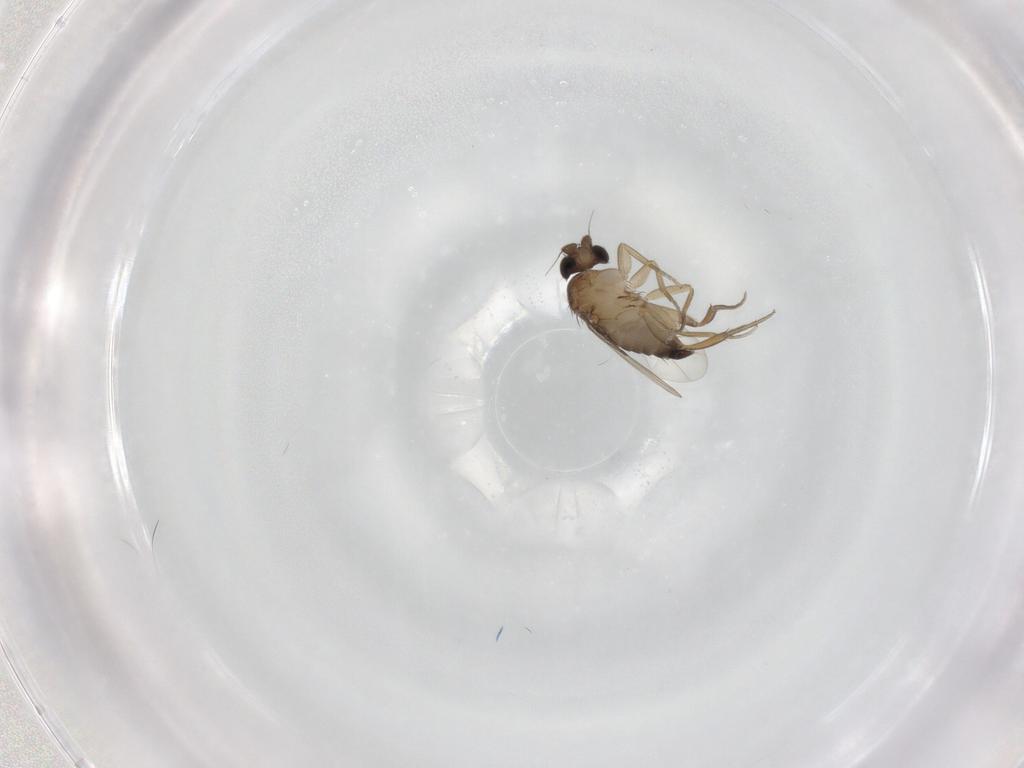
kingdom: Animalia
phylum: Arthropoda
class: Insecta
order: Diptera
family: Phoridae
